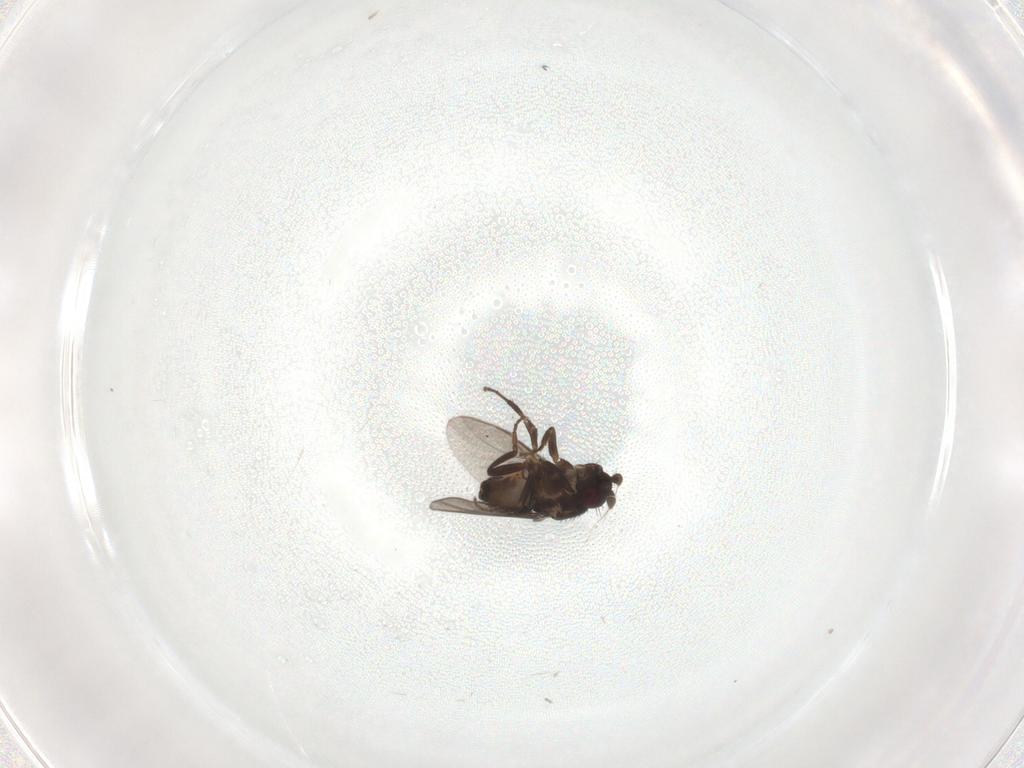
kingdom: Animalia
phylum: Arthropoda
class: Insecta
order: Diptera
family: Sphaeroceridae
